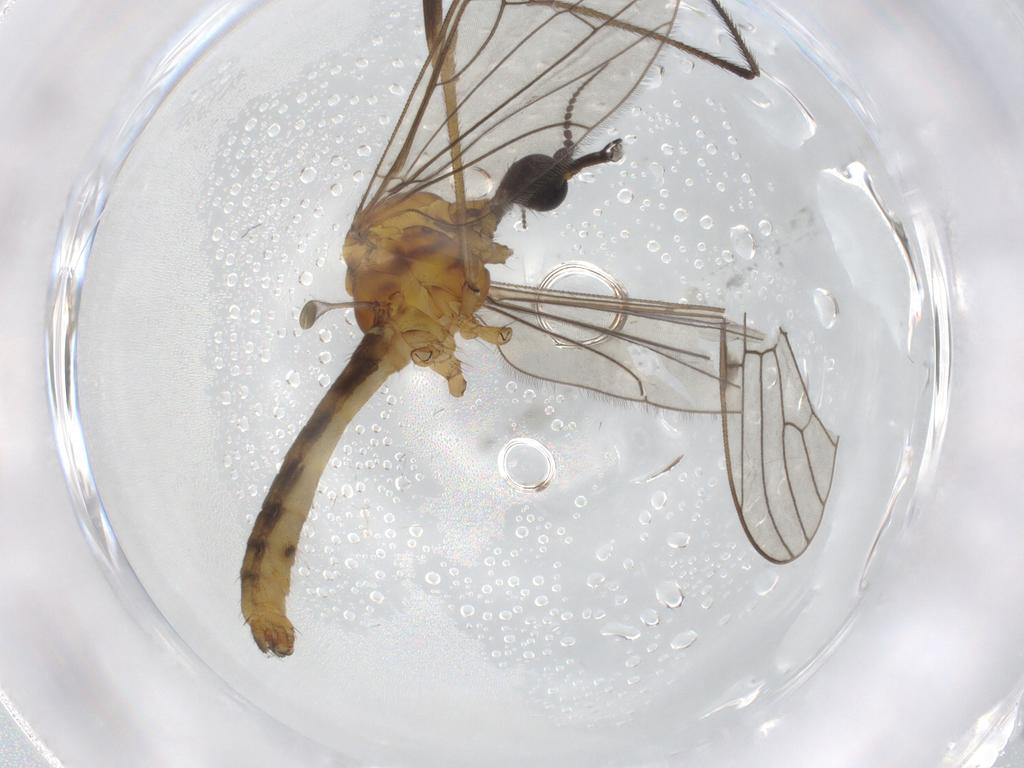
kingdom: Animalia
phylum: Arthropoda
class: Insecta
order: Diptera
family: Limoniidae
